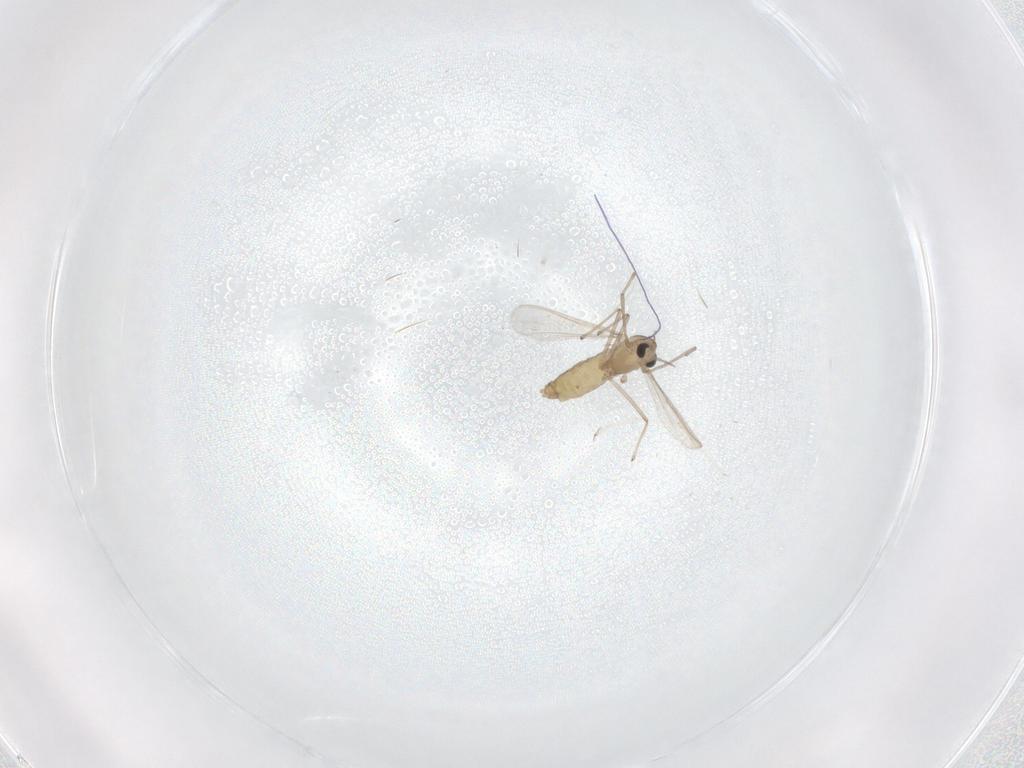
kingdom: Animalia
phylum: Arthropoda
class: Insecta
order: Diptera
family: Chironomidae
